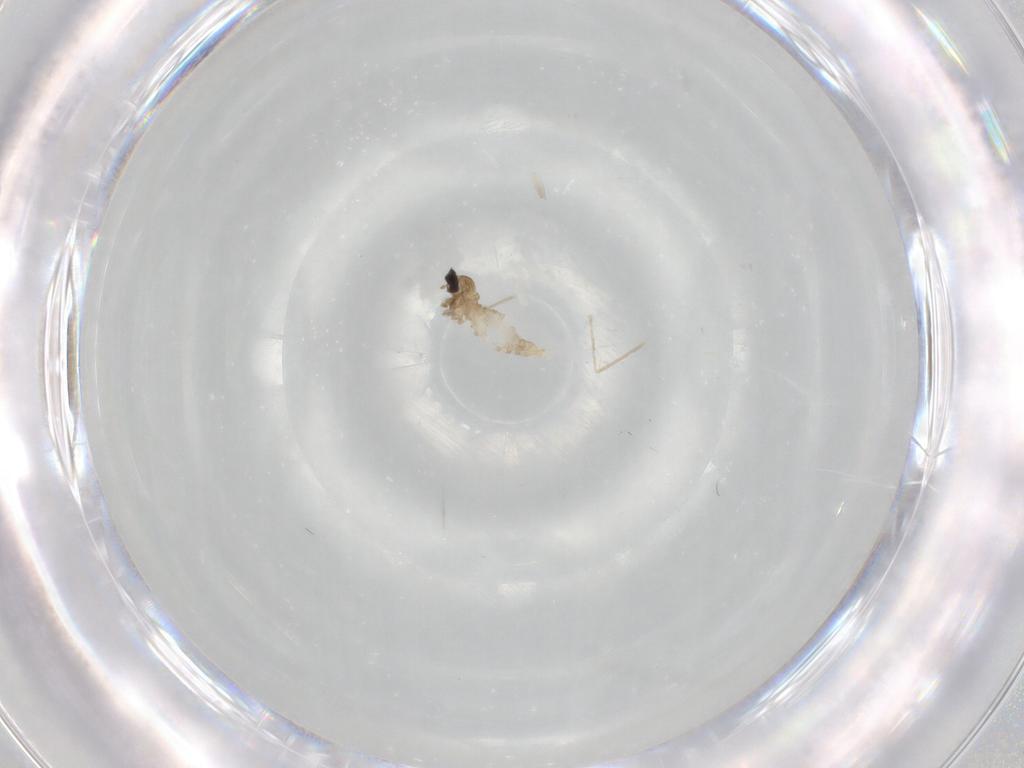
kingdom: Animalia
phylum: Arthropoda
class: Insecta
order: Diptera
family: Cecidomyiidae
